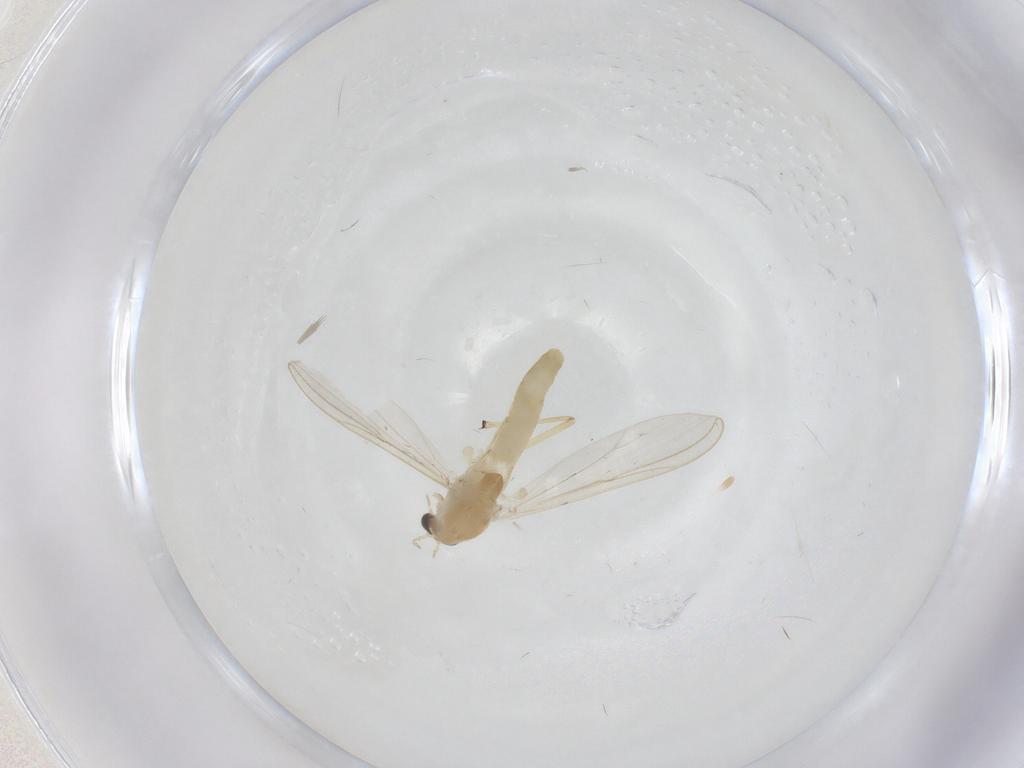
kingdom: Animalia
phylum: Arthropoda
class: Insecta
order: Diptera
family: Chironomidae
